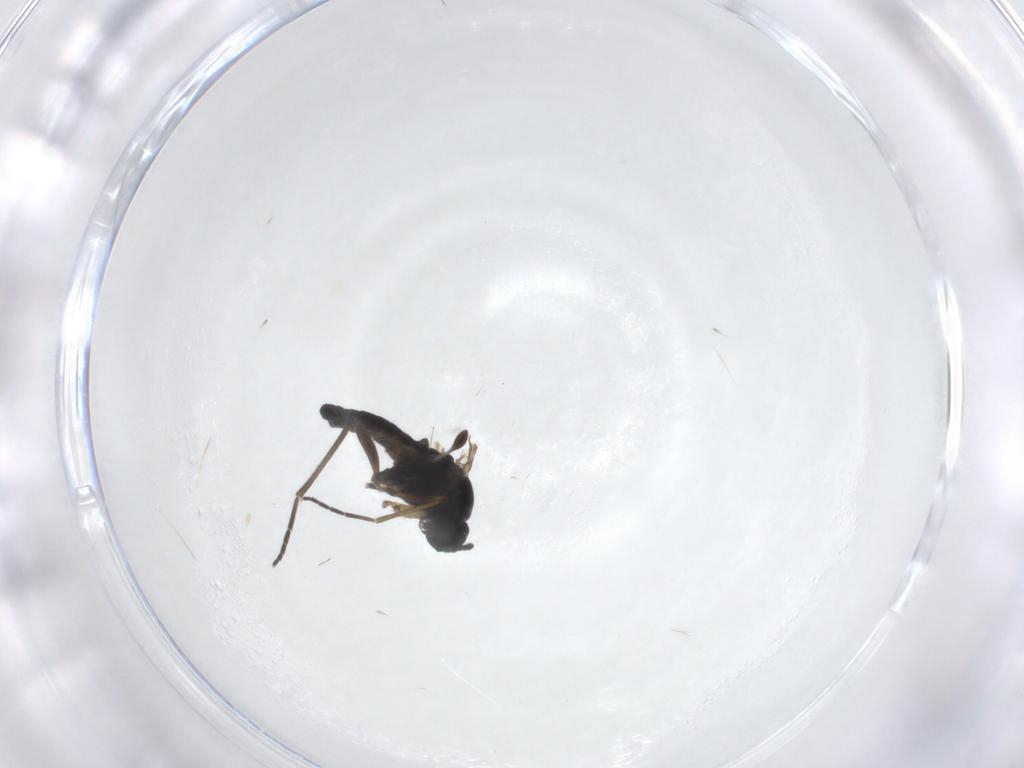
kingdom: Animalia
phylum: Arthropoda
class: Insecta
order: Diptera
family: Sciaridae
